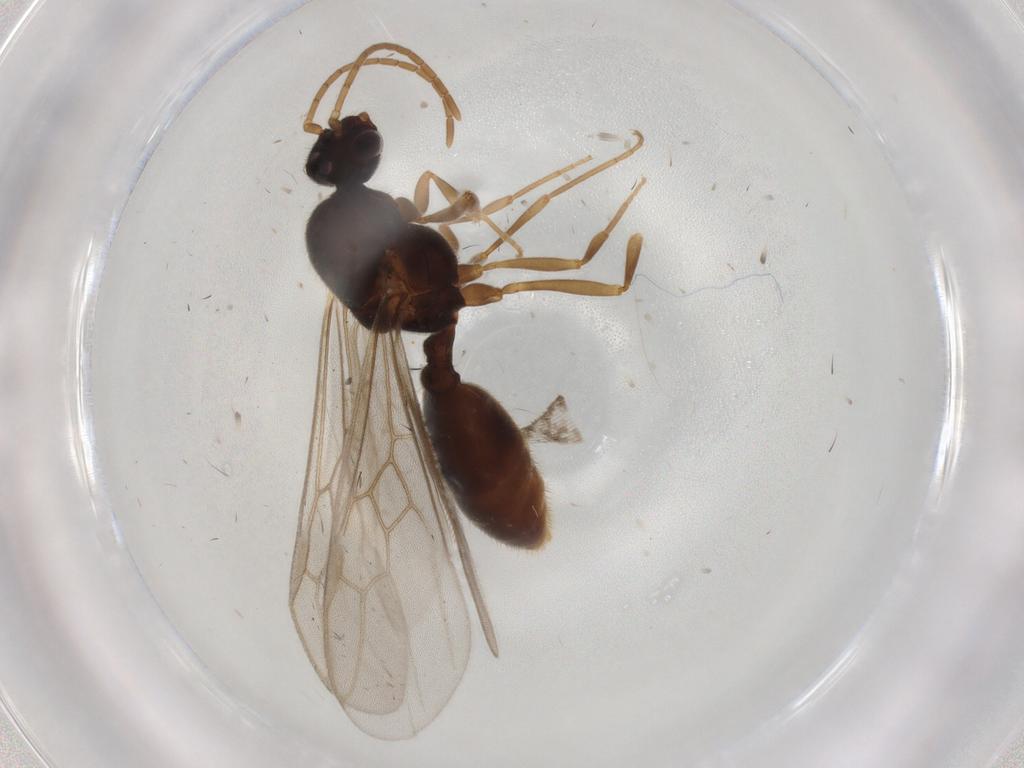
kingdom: Animalia
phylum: Arthropoda
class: Insecta
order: Hymenoptera
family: Formicidae
